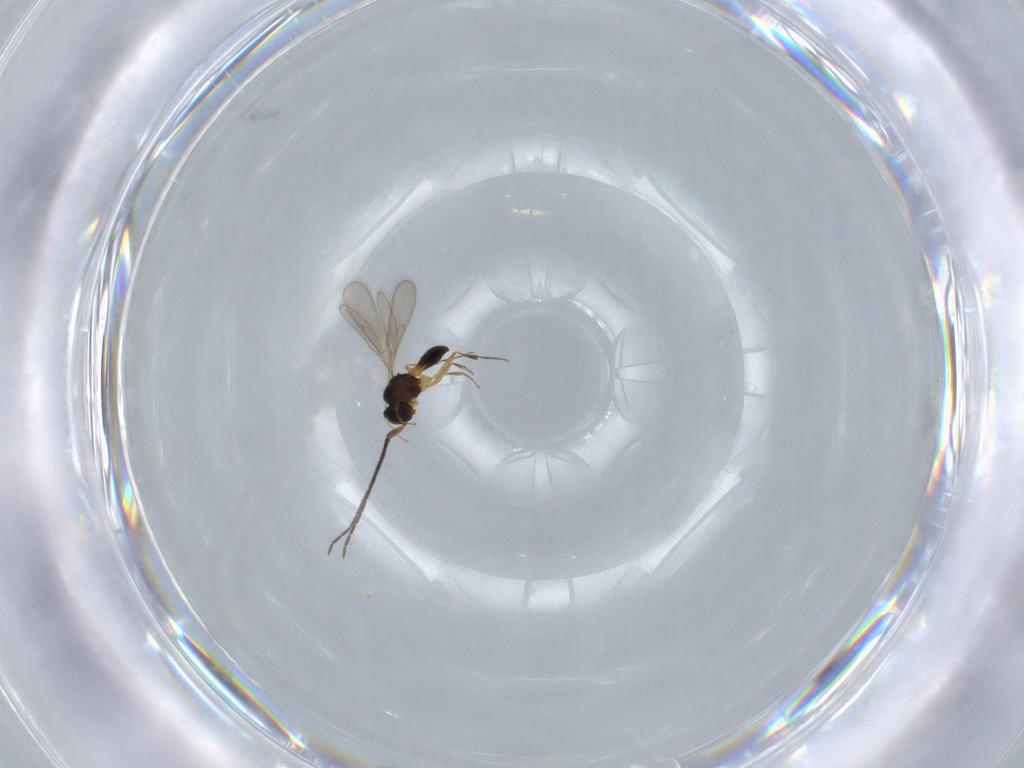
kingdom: Animalia
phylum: Arthropoda
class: Insecta
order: Hymenoptera
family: Scelionidae
